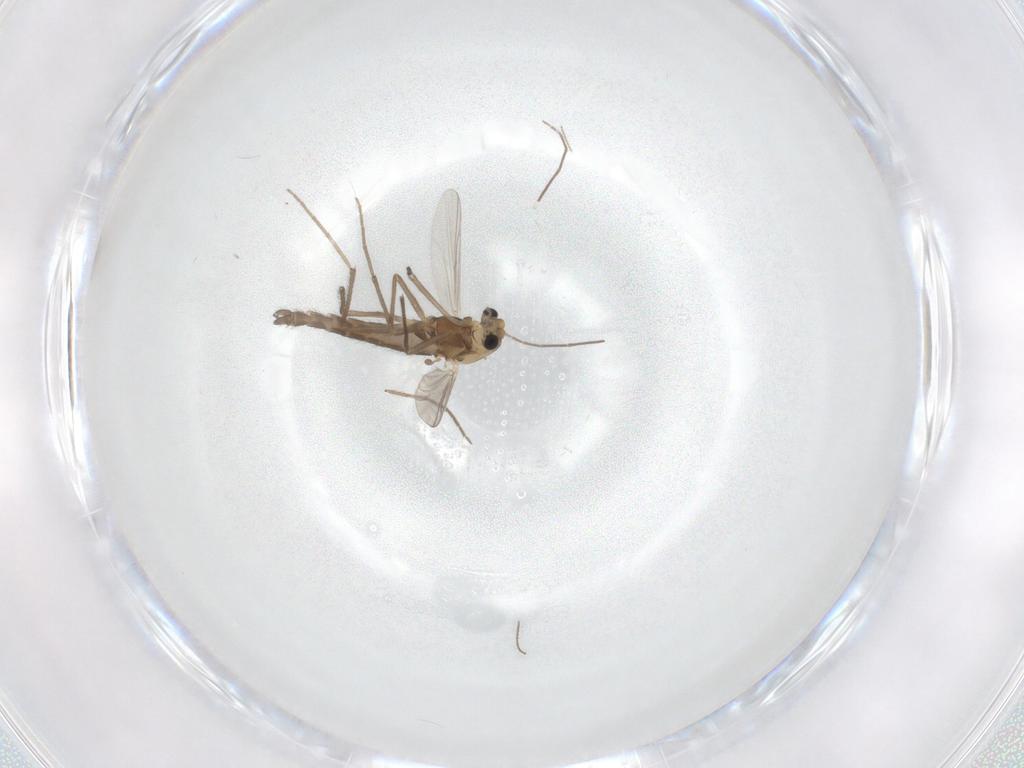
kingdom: Animalia
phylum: Arthropoda
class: Insecta
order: Diptera
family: Chironomidae
